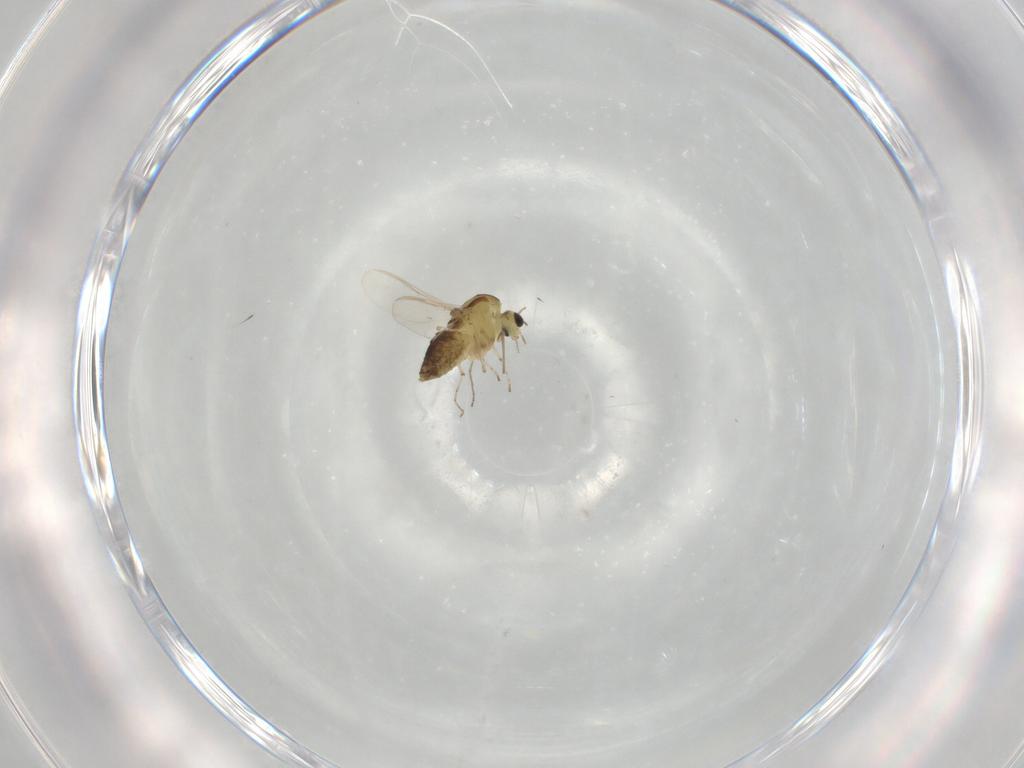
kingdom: Animalia
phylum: Arthropoda
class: Insecta
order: Diptera
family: Chironomidae
